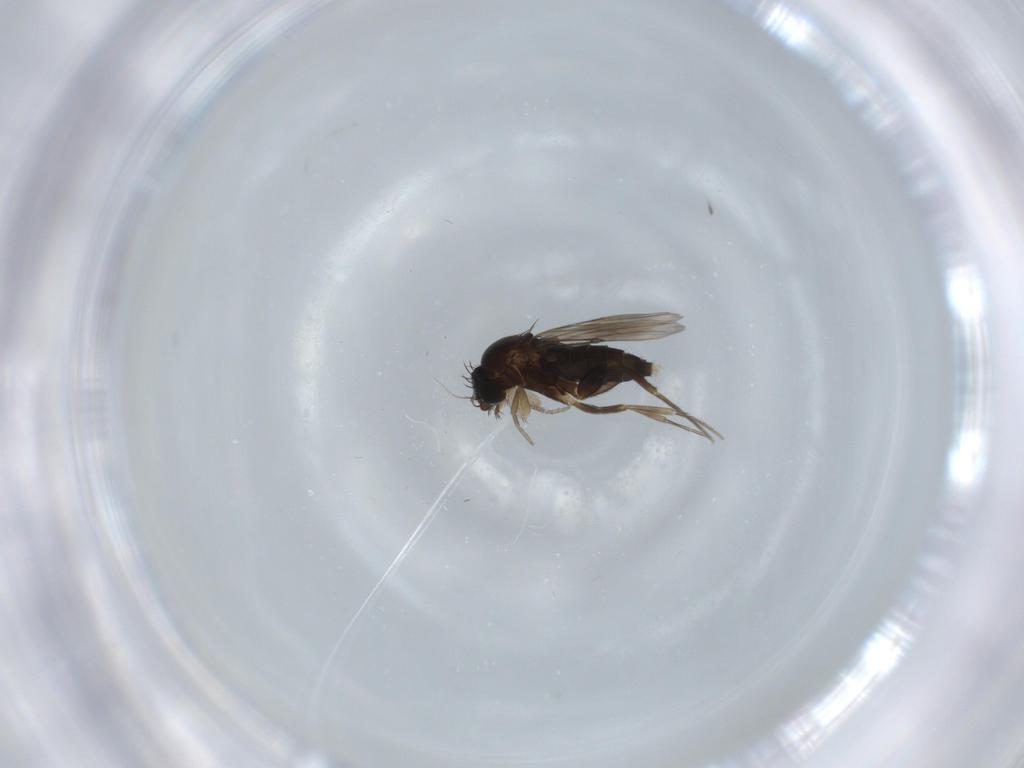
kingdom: Animalia
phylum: Arthropoda
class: Insecta
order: Diptera
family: Phoridae
